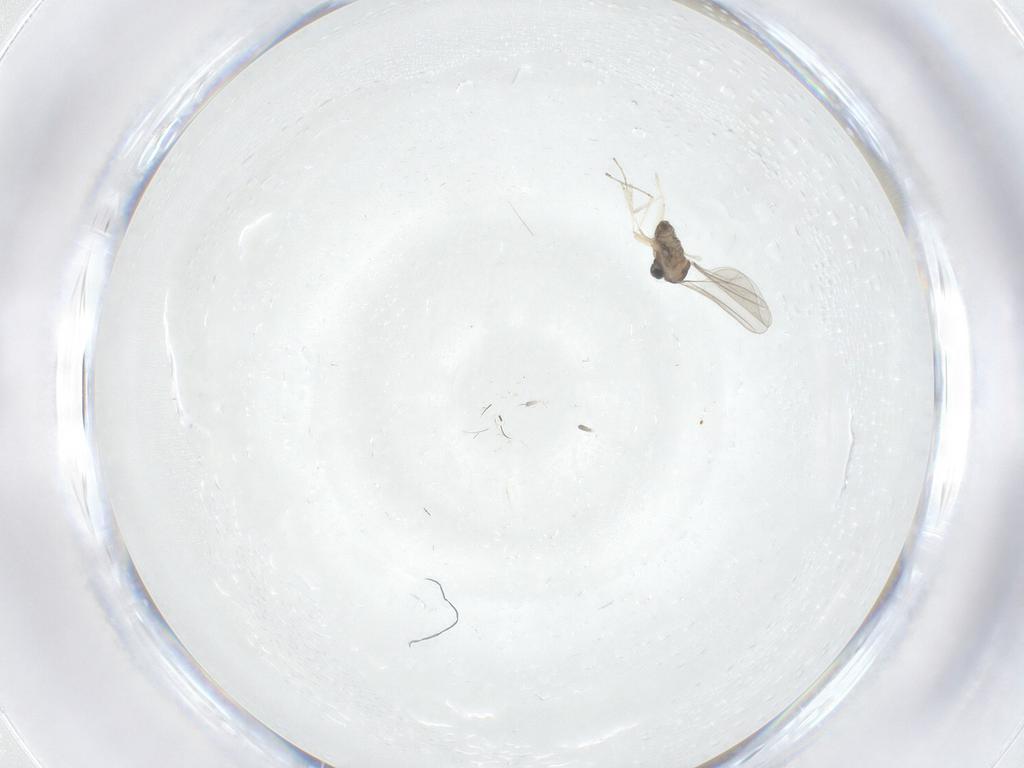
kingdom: Animalia
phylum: Arthropoda
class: Insecta
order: Diptera
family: Cecidomyiidae
